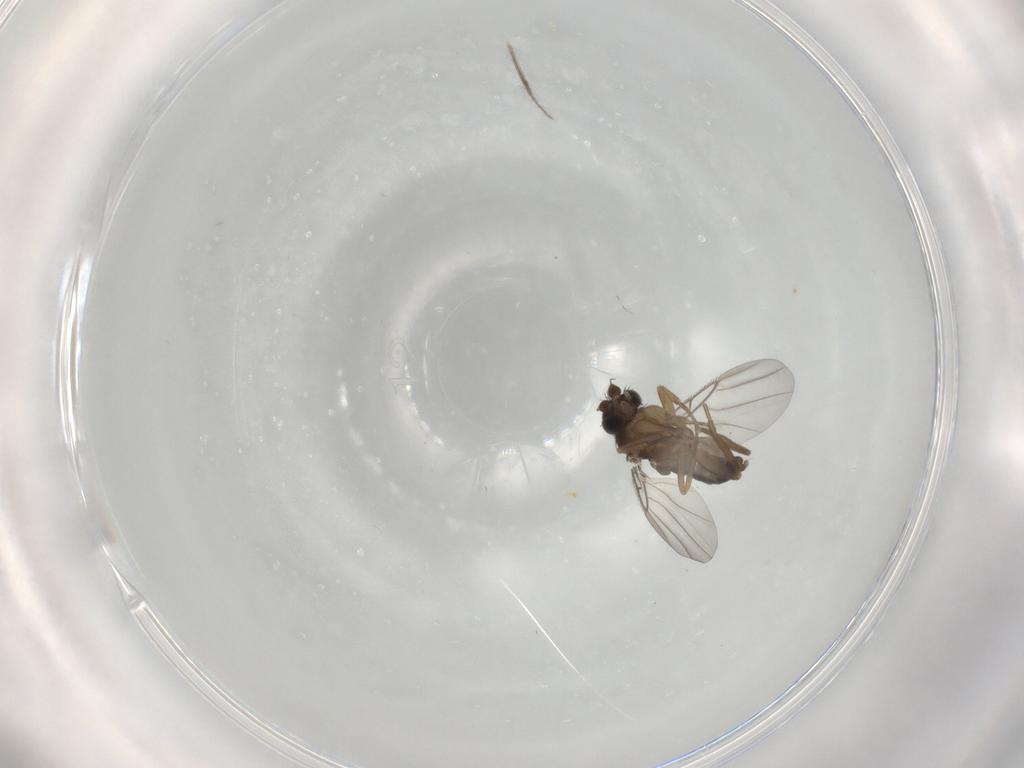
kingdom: Animalia
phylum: Arthropoda
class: Insecta
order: Diptera
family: Phoridae
